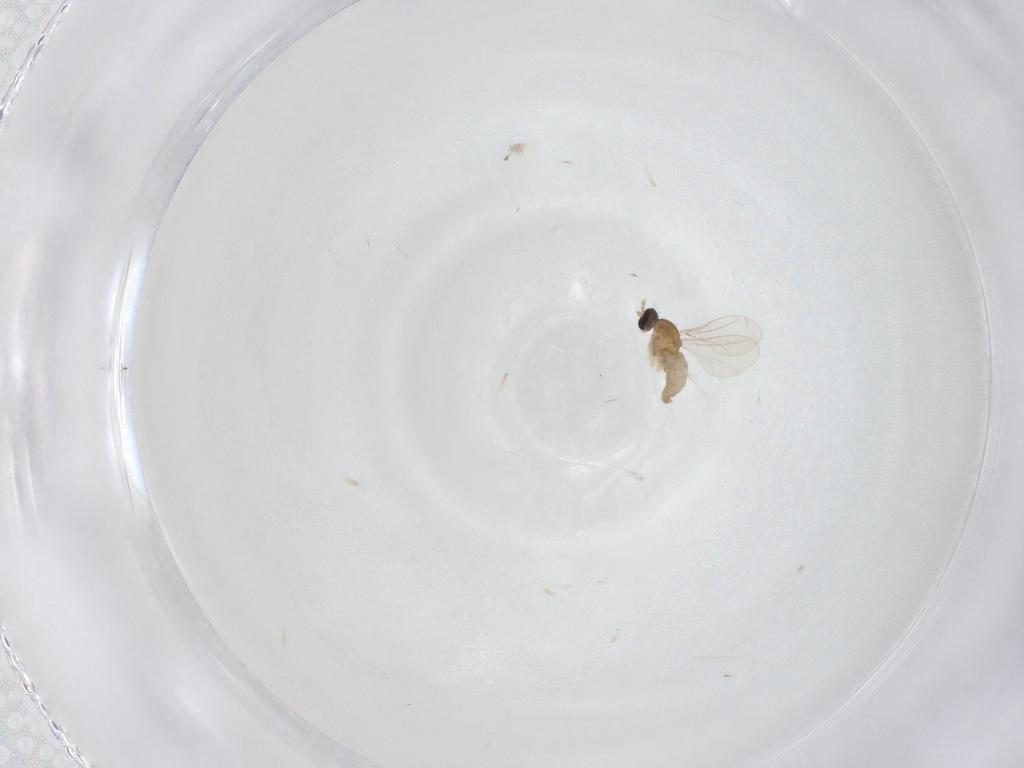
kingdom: Animalia
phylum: Arthropoda
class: Insecta
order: Diptera
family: Cecidomyiidae
